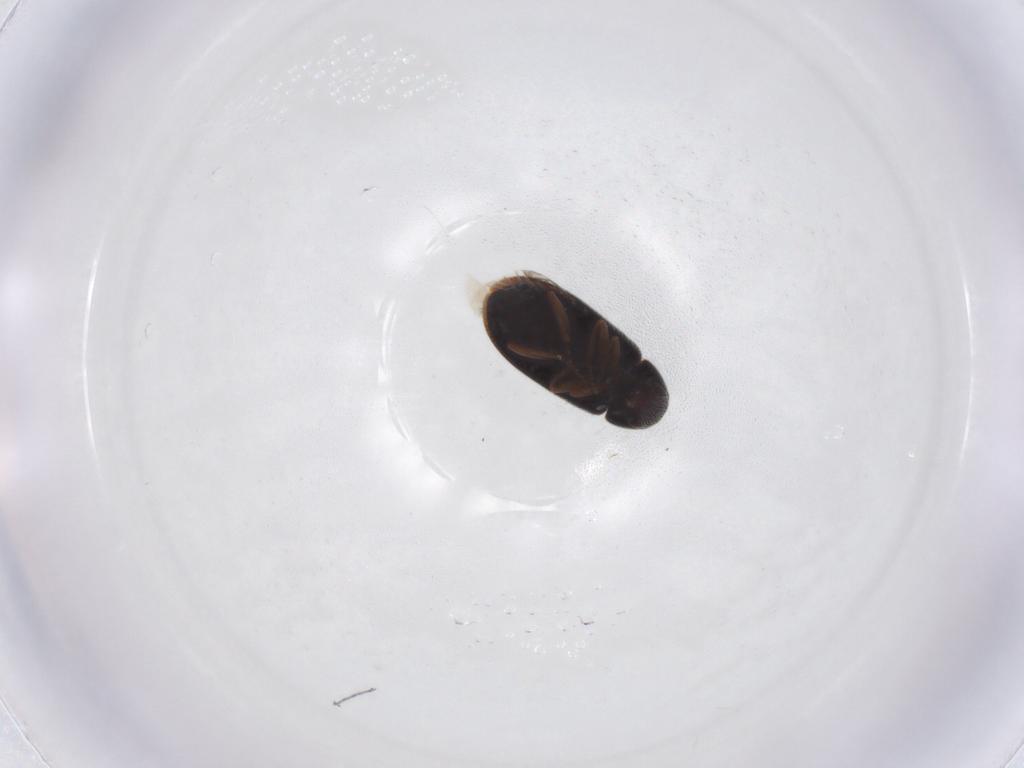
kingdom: Animalia
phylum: Arthropoda
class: Insecta
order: Coleoptera
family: Rhadalidae
